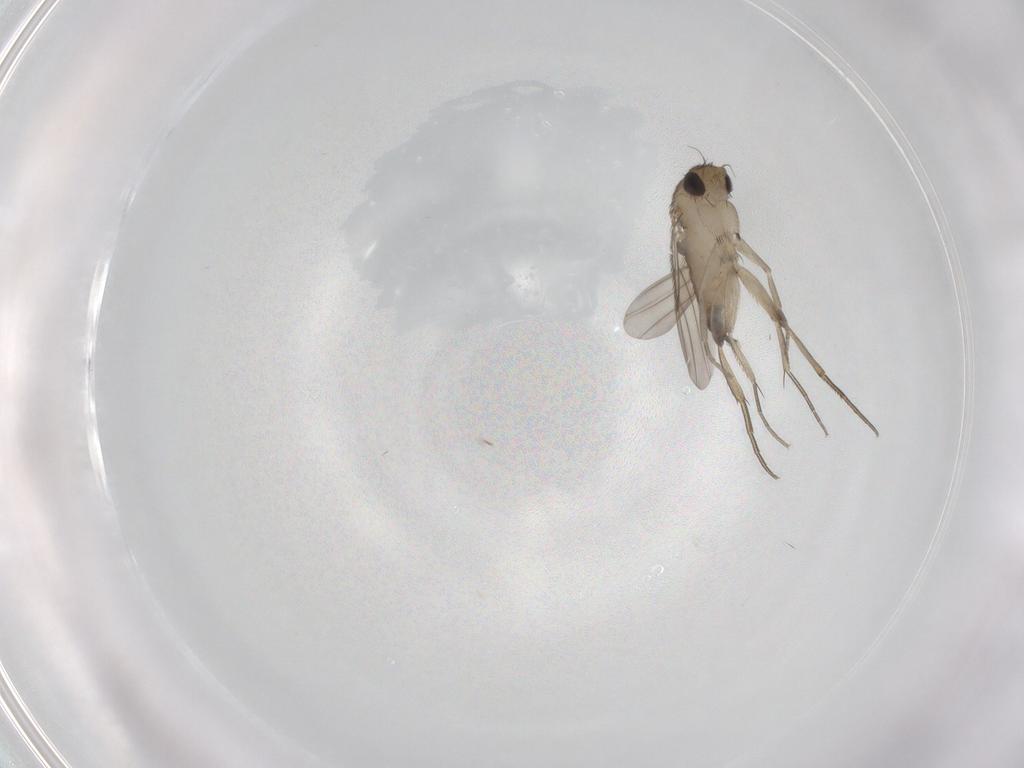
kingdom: Animalia
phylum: Arthropoda
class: Insecta
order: Diptera
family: Phoridae
